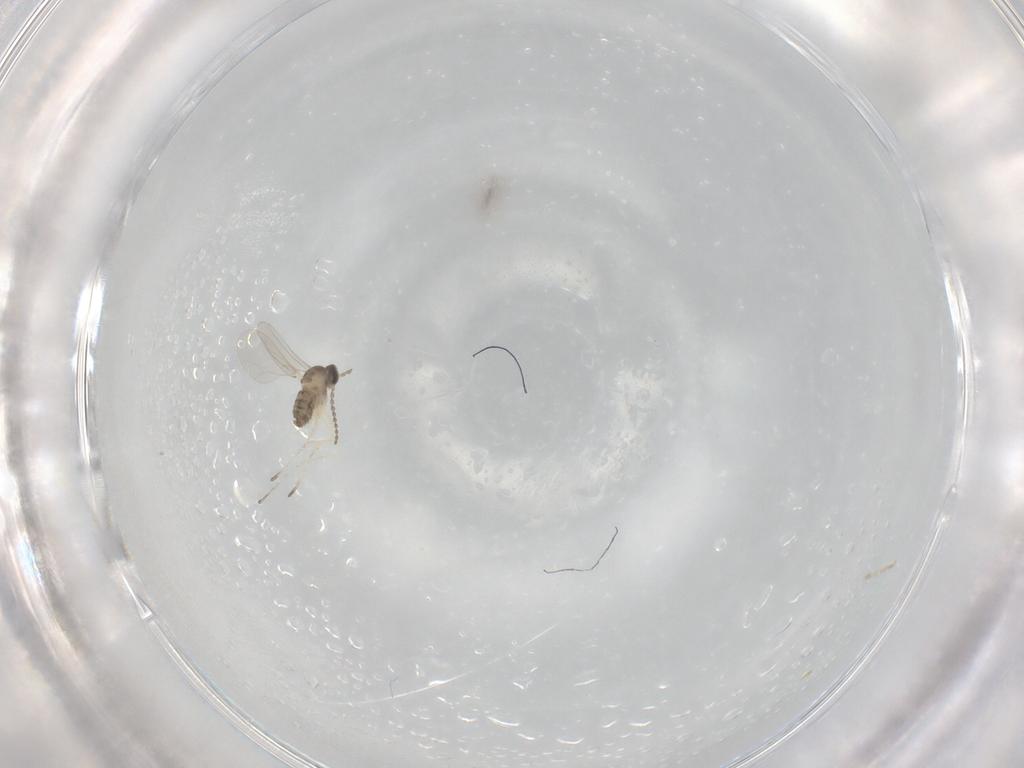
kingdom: Animalia
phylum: Arthropoda
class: Insecta
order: Diptera
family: Cecidomyiidae
